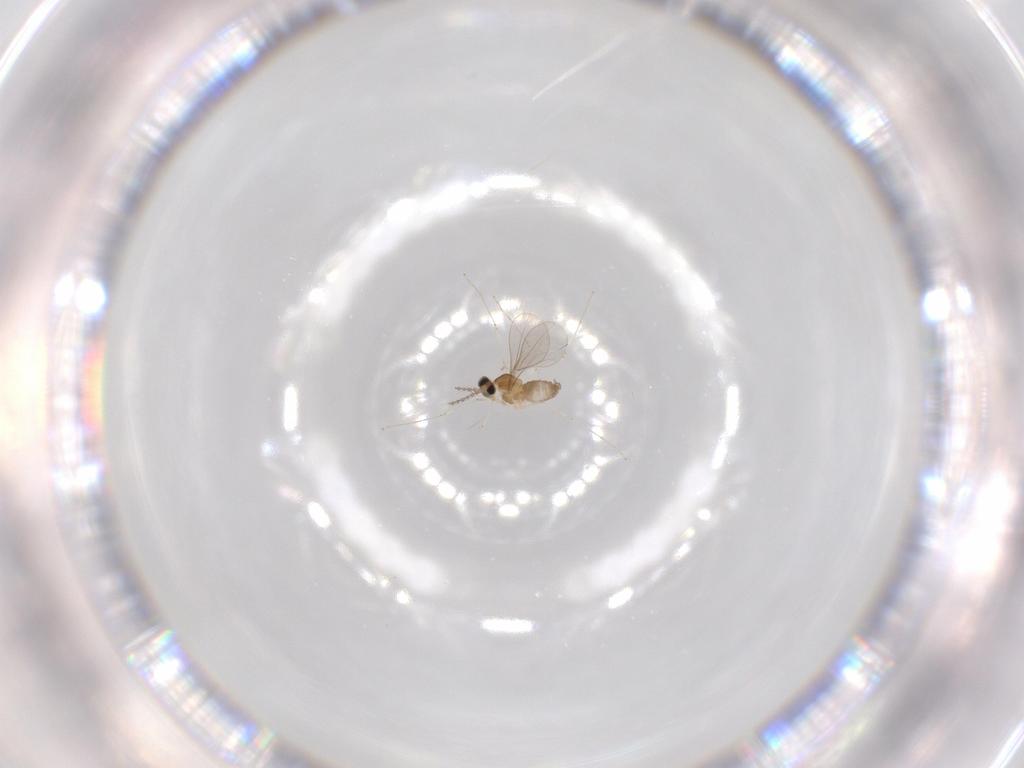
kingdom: Animalia
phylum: Arthropoda
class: Insecta
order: Diptera
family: Cecidomyiidae
